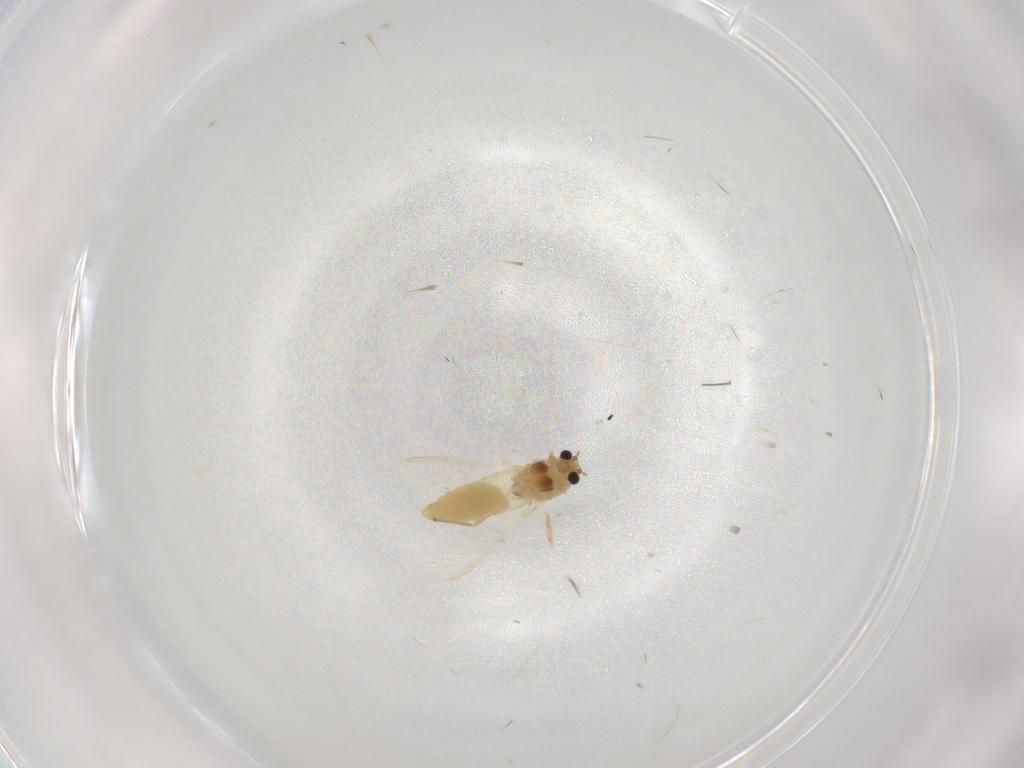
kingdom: Animalia
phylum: Arthropoda
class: Insecta
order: Diptera
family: Chironomidae
